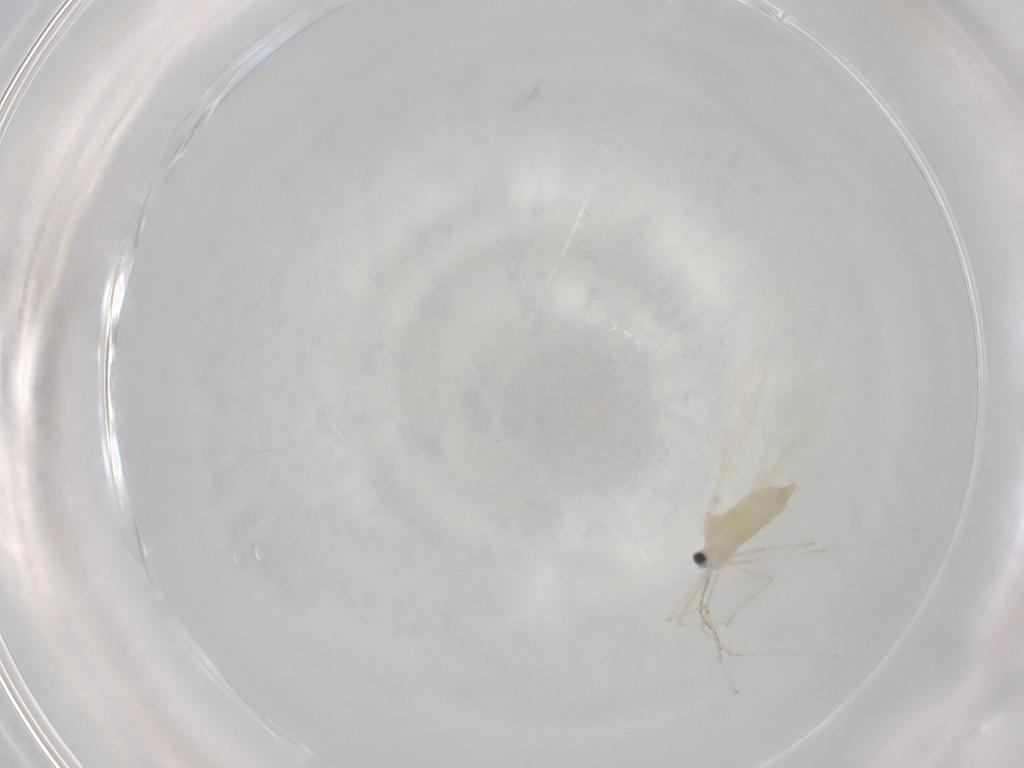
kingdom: Animalia
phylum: Arthropoda
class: Insecta
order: Diptera
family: Cecidomyiidae
